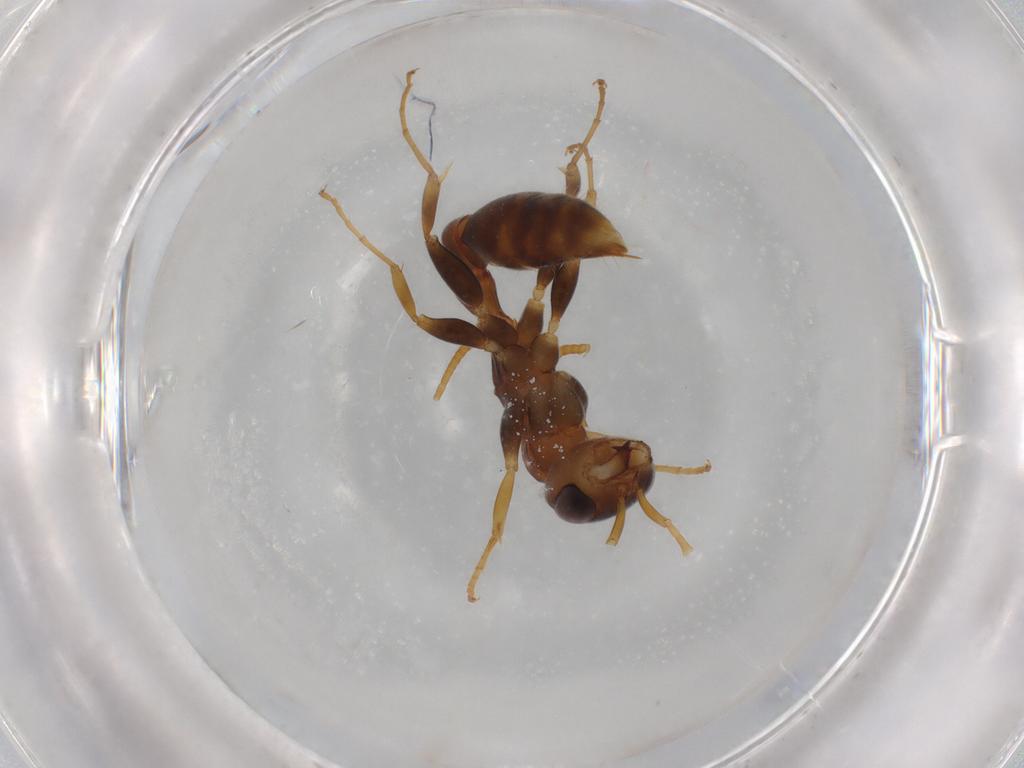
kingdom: Animalia
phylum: Arthropoda
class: Insecta
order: Hymenoptera
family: Formicidae
